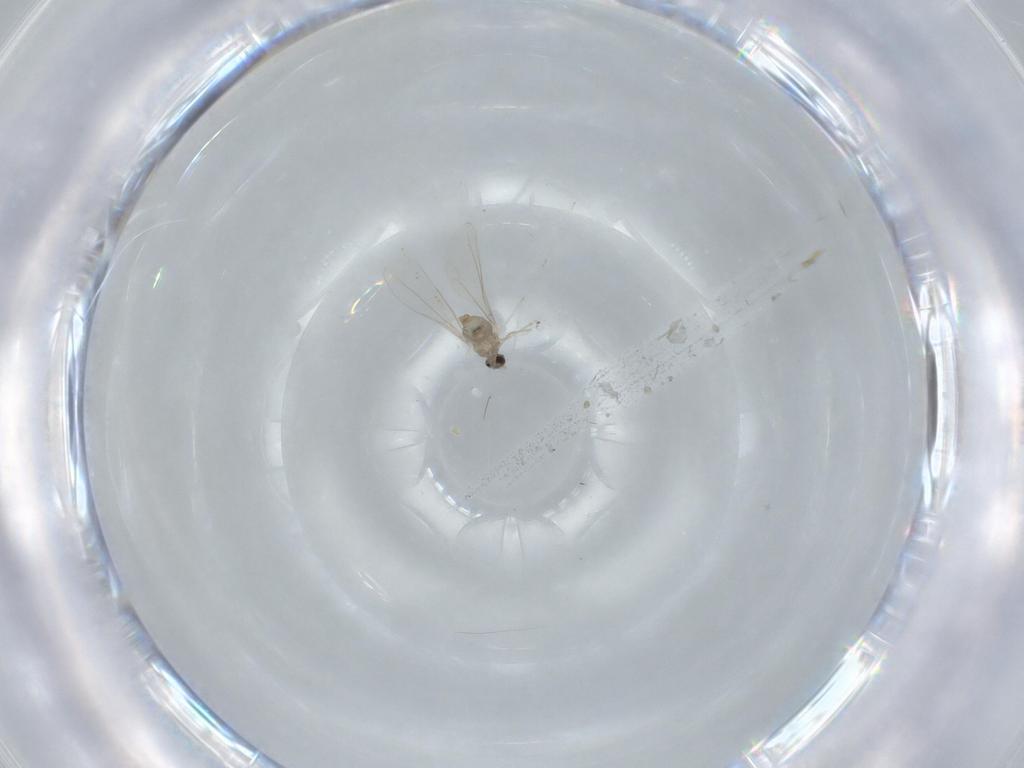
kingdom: Animalia
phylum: Arthropoda
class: Insecta
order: Diptera
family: Cecidomyiidae
